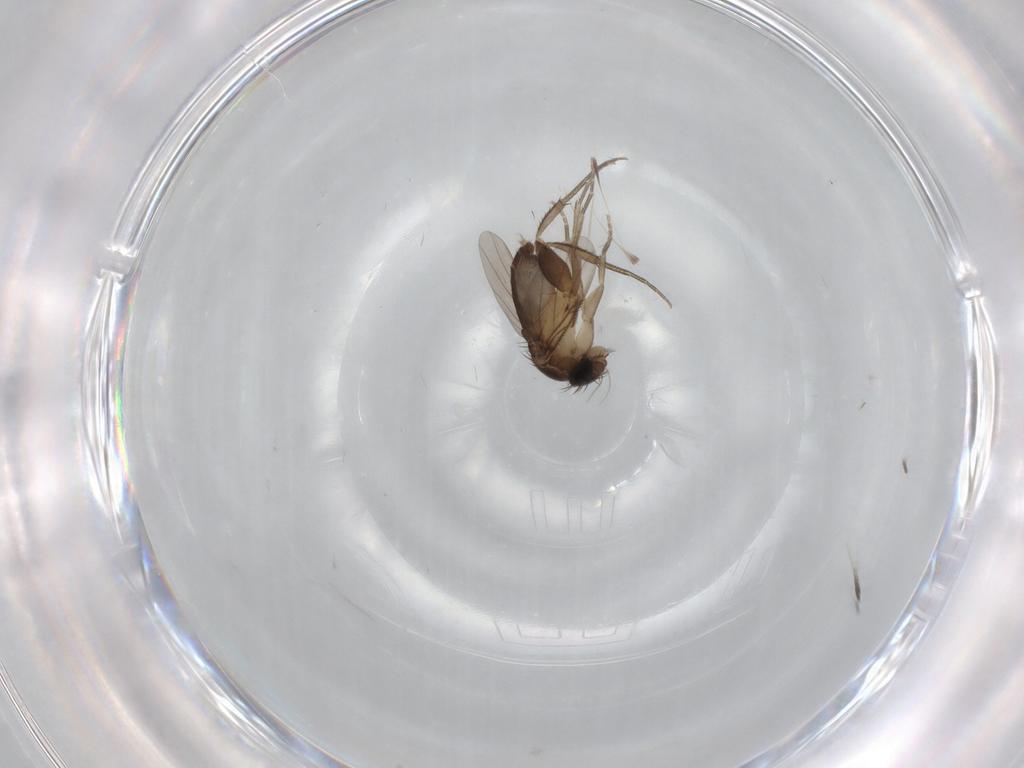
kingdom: Animalia
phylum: Arthropoda
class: Insecta
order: Diptera
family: Phoridae
